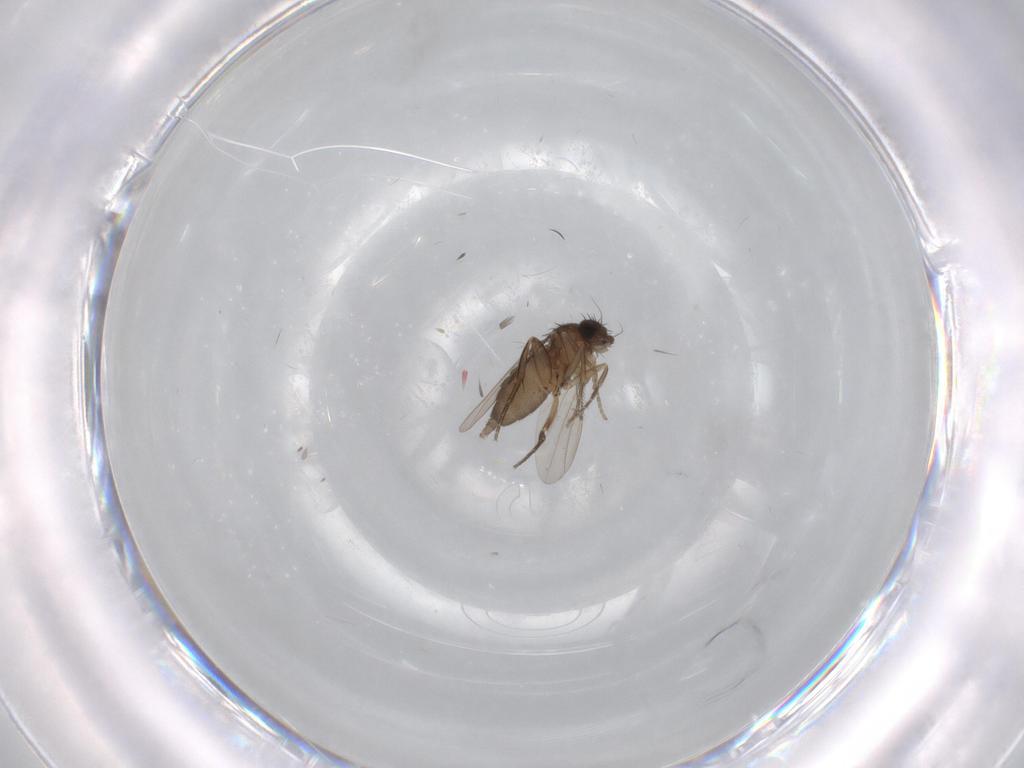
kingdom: Animalia
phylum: Arthropoda
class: Insecta
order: Diptera
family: Phoridae
